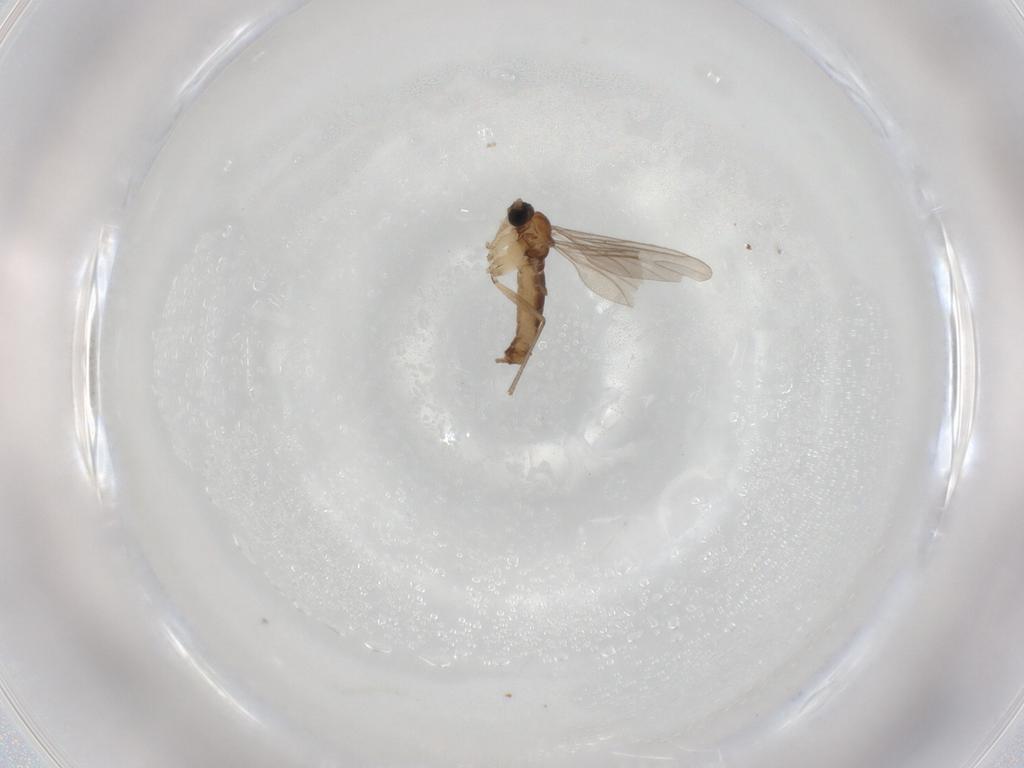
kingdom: Animalia
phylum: Arthropoda
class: Insecta
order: Diptera
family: Sciaridae
